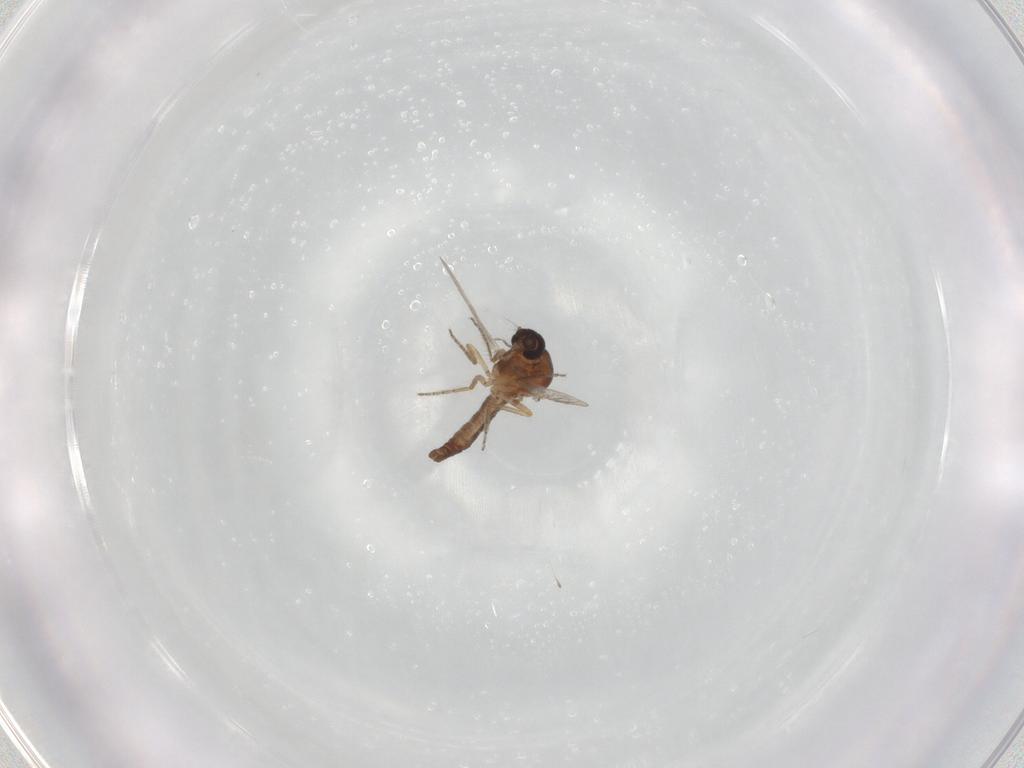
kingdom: Animalia
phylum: Arthropoda
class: Insecta
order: Diptera
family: Ceratopogonidae
